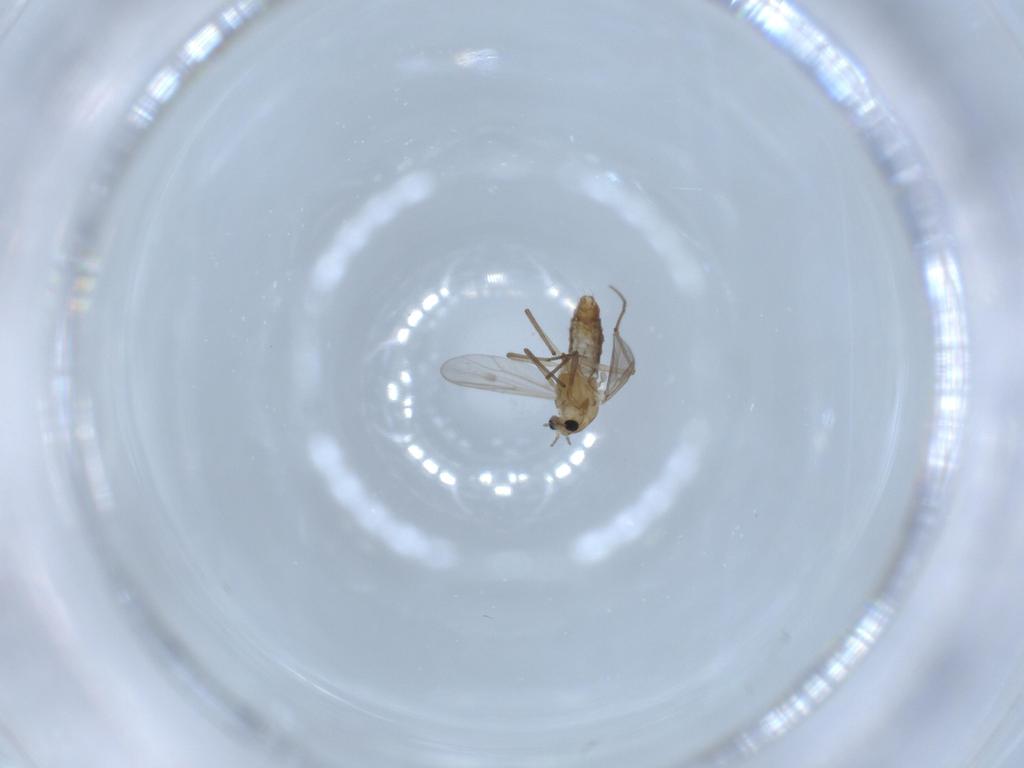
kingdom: Animalia
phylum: Arthropoda
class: Insecta
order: Diptera
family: Chironomidae
